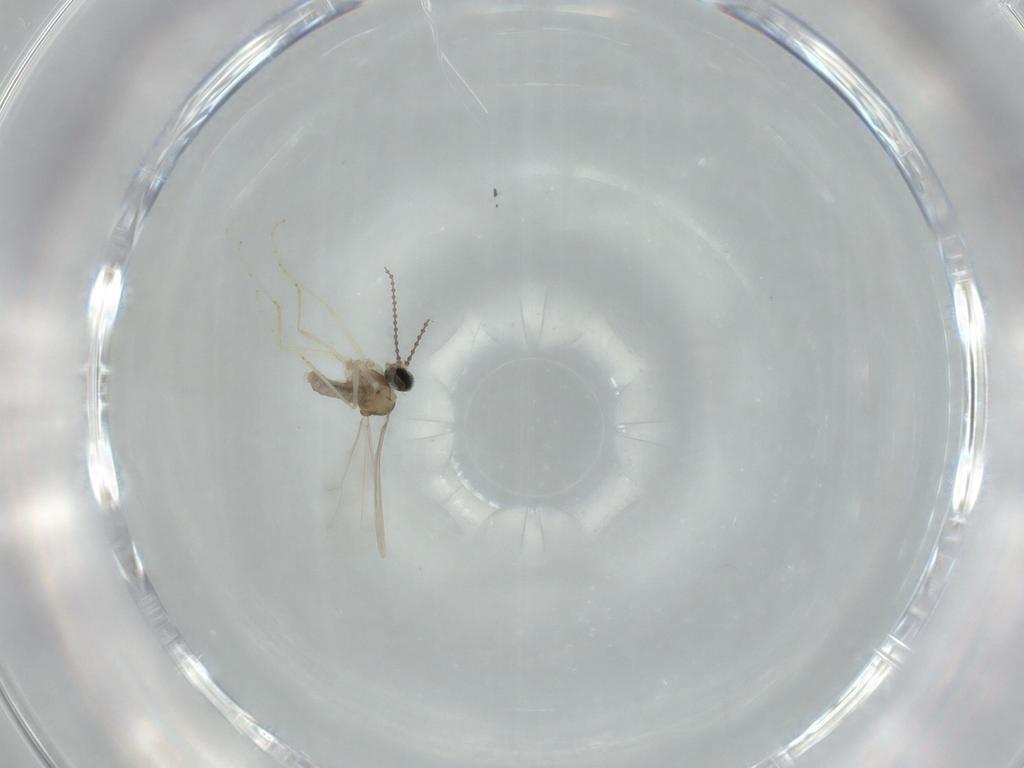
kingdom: Animalia
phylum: Arthropoda
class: Insecta
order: Diptera
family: Cecidomyiidae
